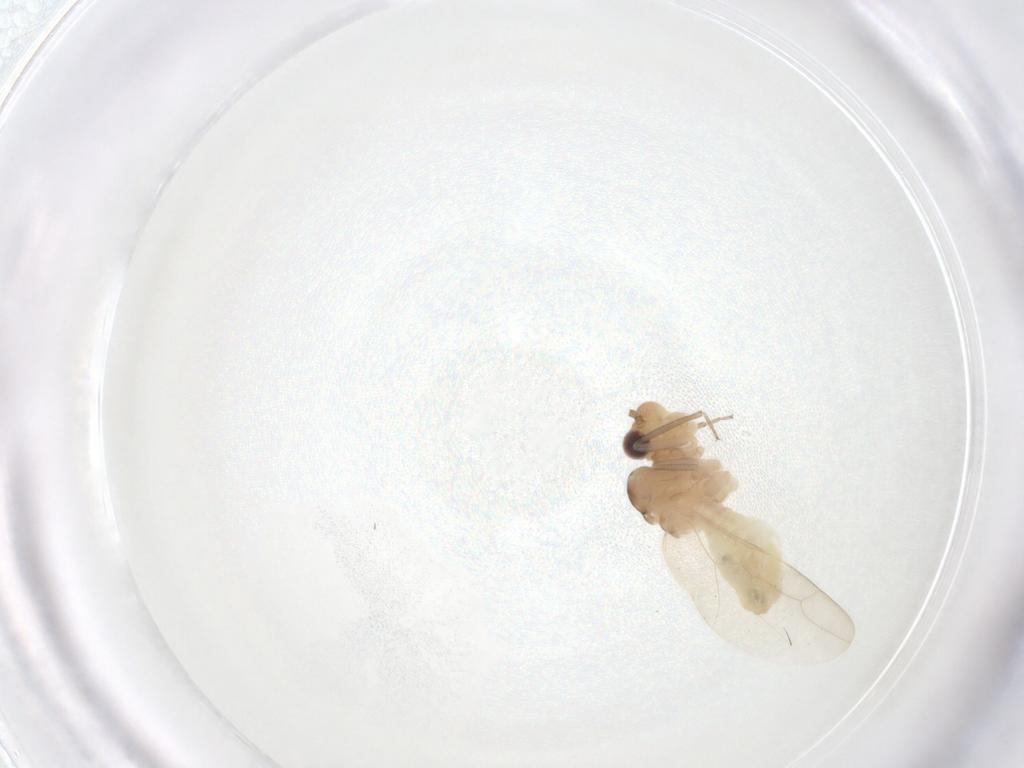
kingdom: Animalia
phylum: Arthropoda
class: Insecta
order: Psocodea
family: Caeciliusidae
